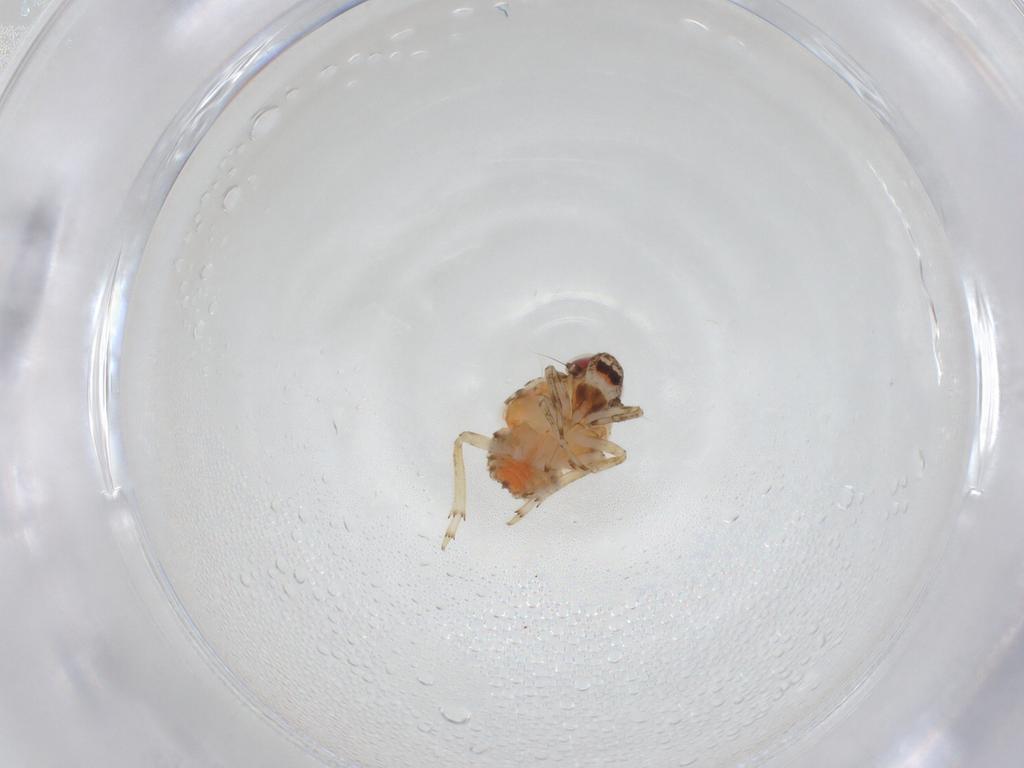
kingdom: Animalia
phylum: Arthropoda
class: Insecta
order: Hemiptera
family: Issidae
